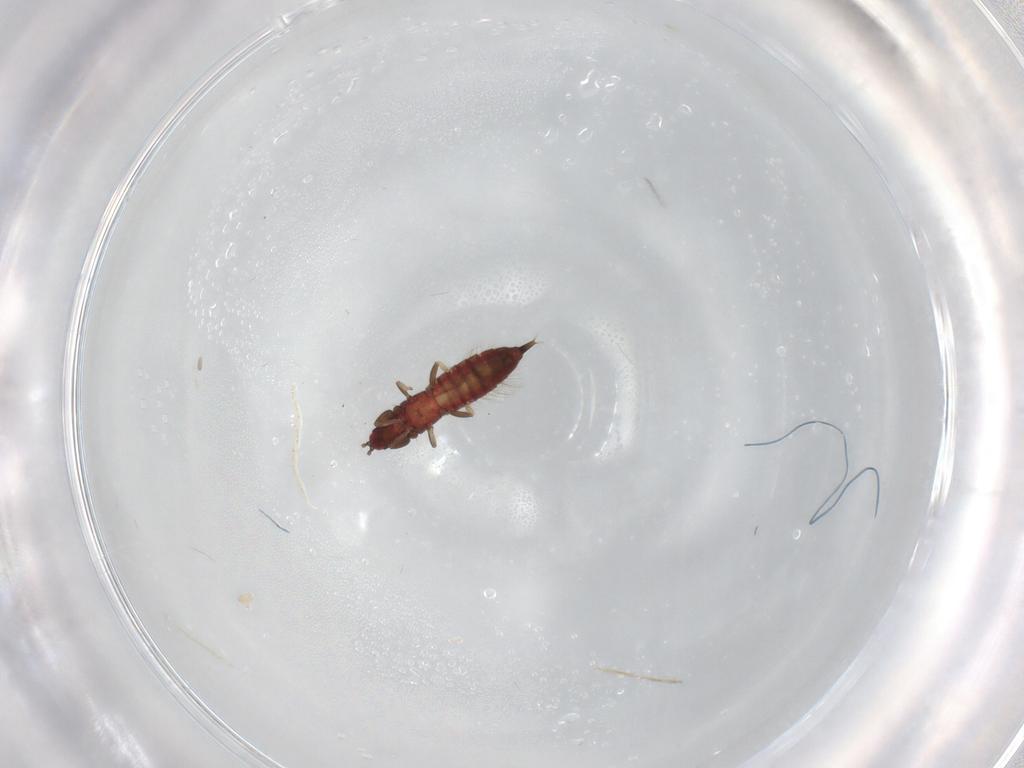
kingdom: Animalia
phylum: Arthropoda
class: Insecta
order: Thysanoptera
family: Phlaeothripidae
